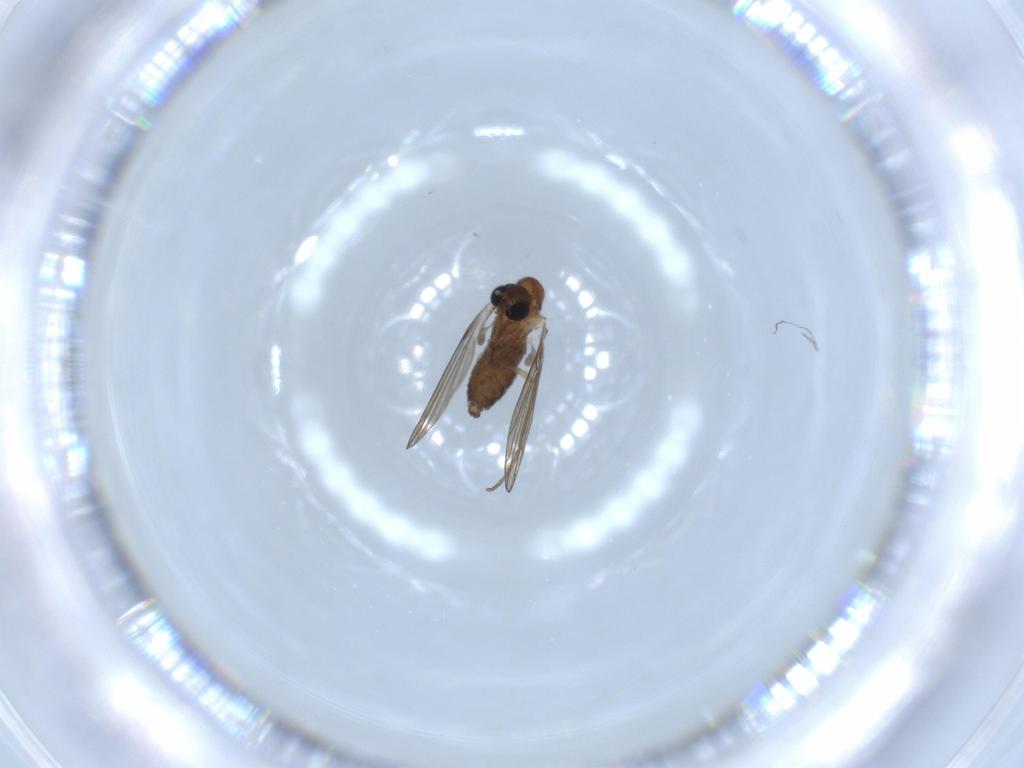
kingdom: Animalia
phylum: Arthropoda
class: Insecta
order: Diptera
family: Psychodidae
